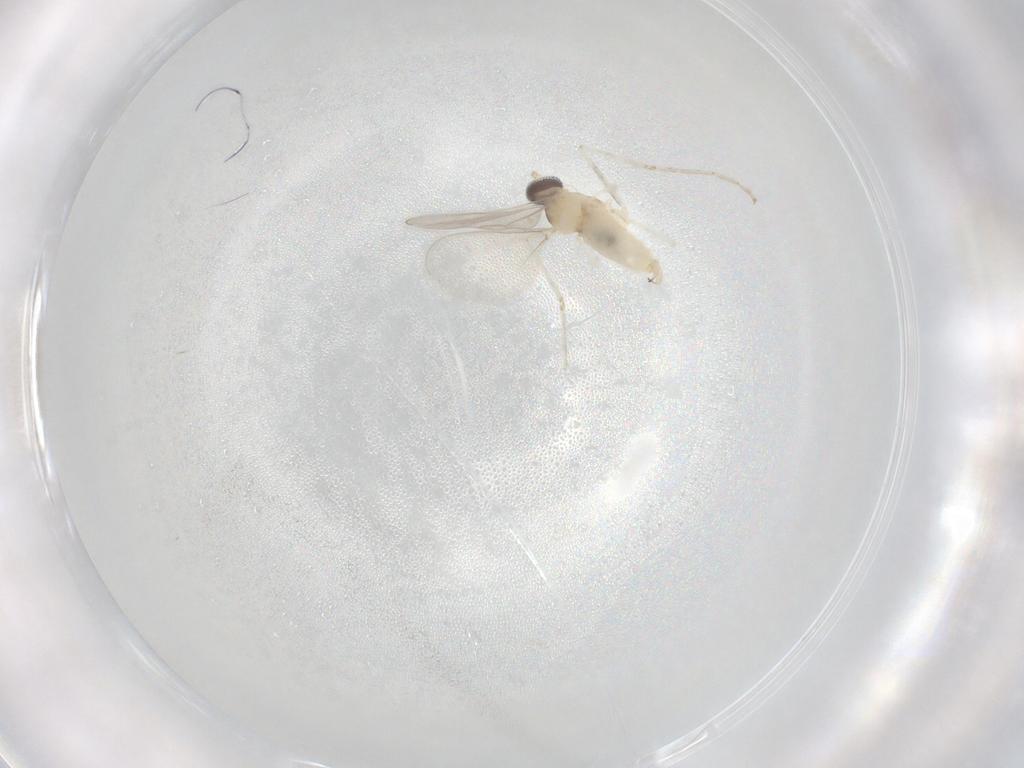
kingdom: Animalia
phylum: Arthropoda
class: Insecta
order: Diptera
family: Cecidomyiidae
